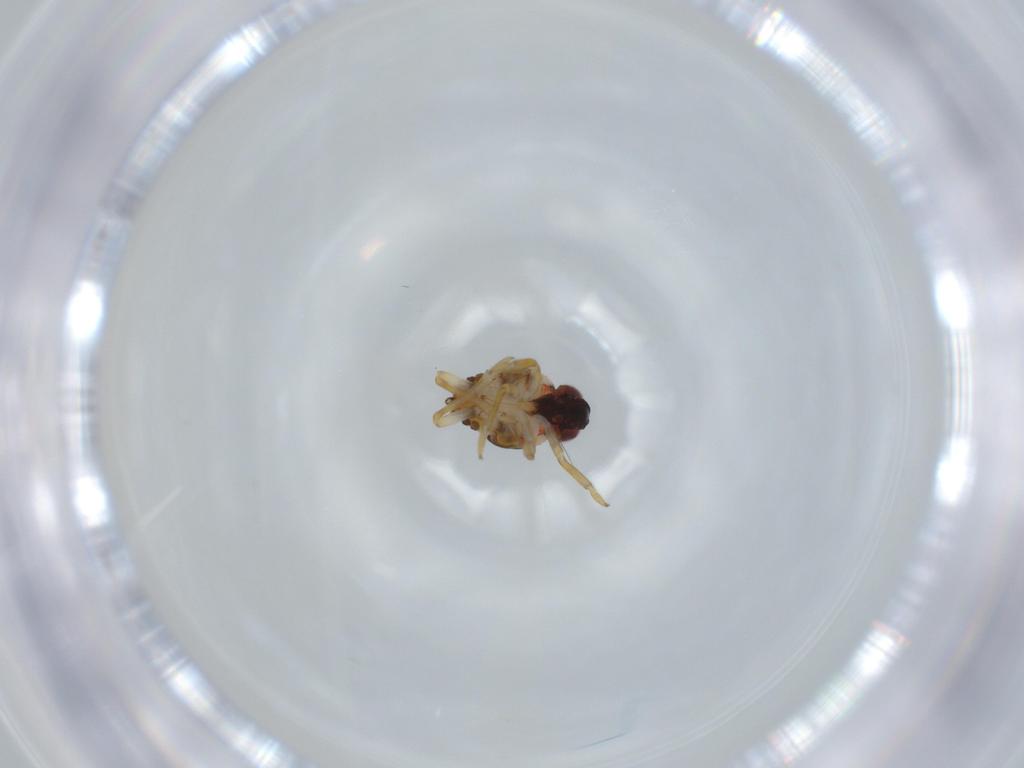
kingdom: Animalia
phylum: Arthropoda
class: Insecta
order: Hemiptera
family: Issidae
